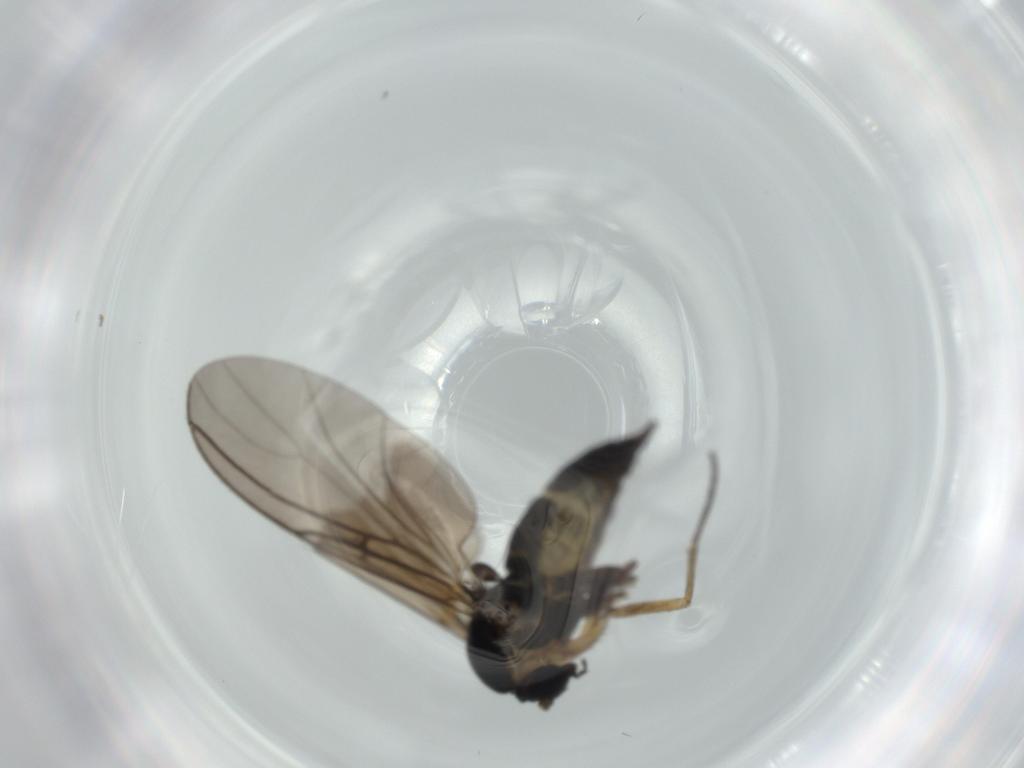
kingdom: Animalia
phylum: Arthropoda
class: Insecta
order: Diptera
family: Sciaridae
